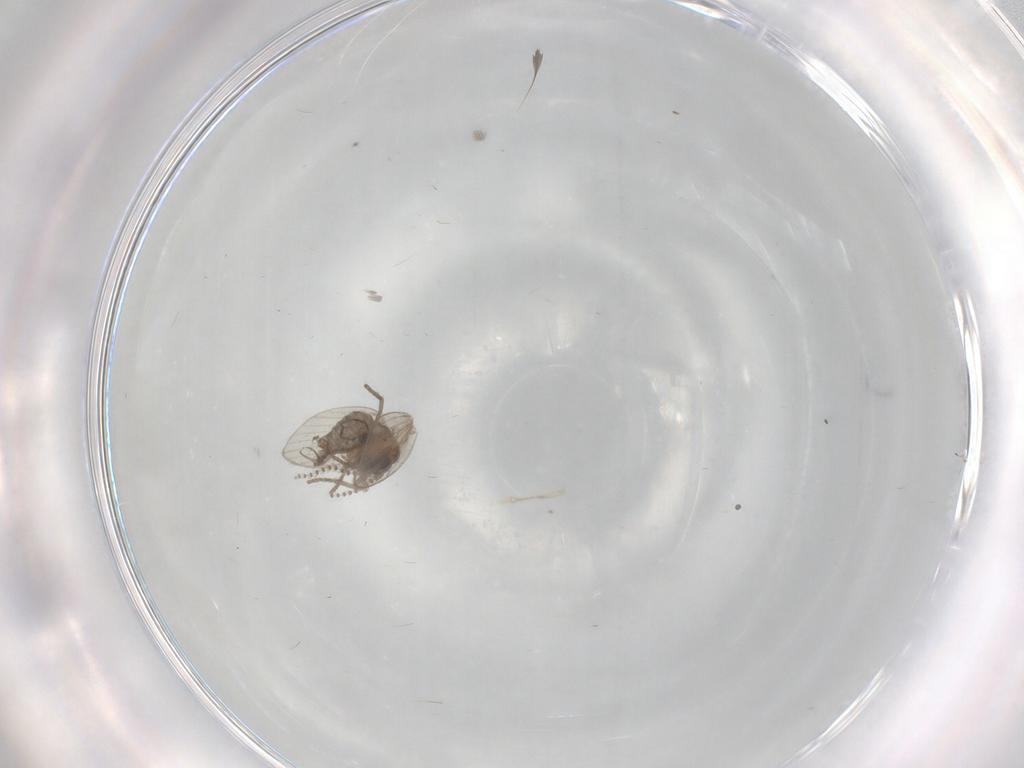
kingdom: Animalia
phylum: Arthropoda
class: Insecta
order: Diptera
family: Psychodidae
